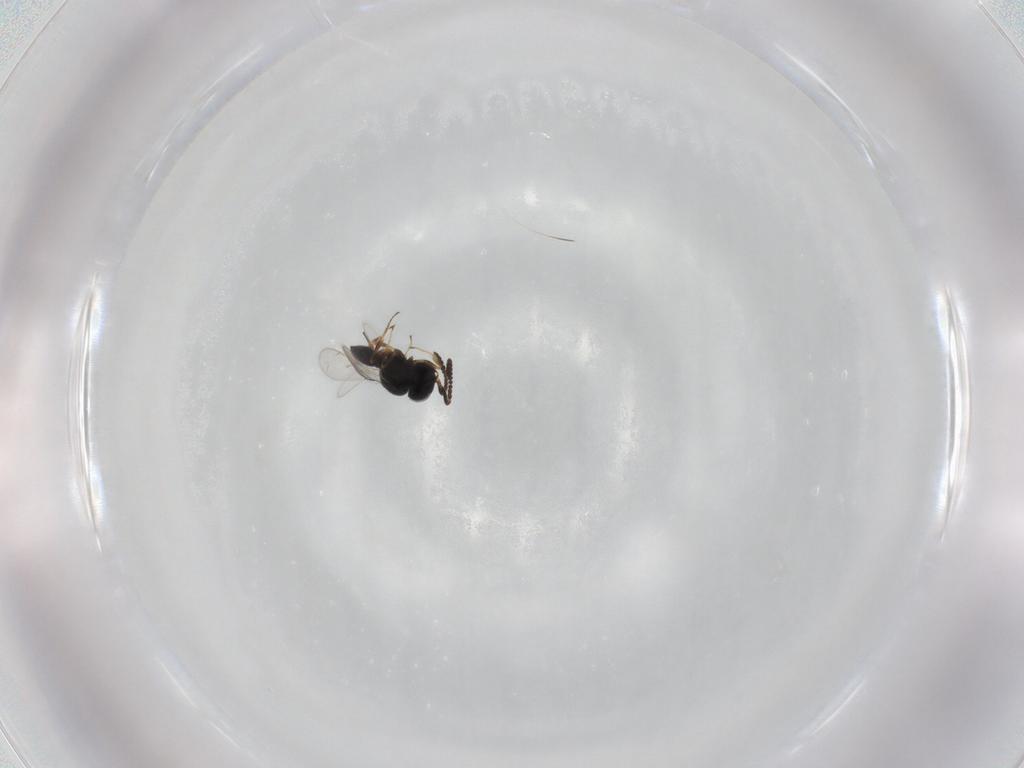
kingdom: Animalia
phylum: Arthropoda
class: Insecta
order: Hymenoptera
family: Scelionidae
